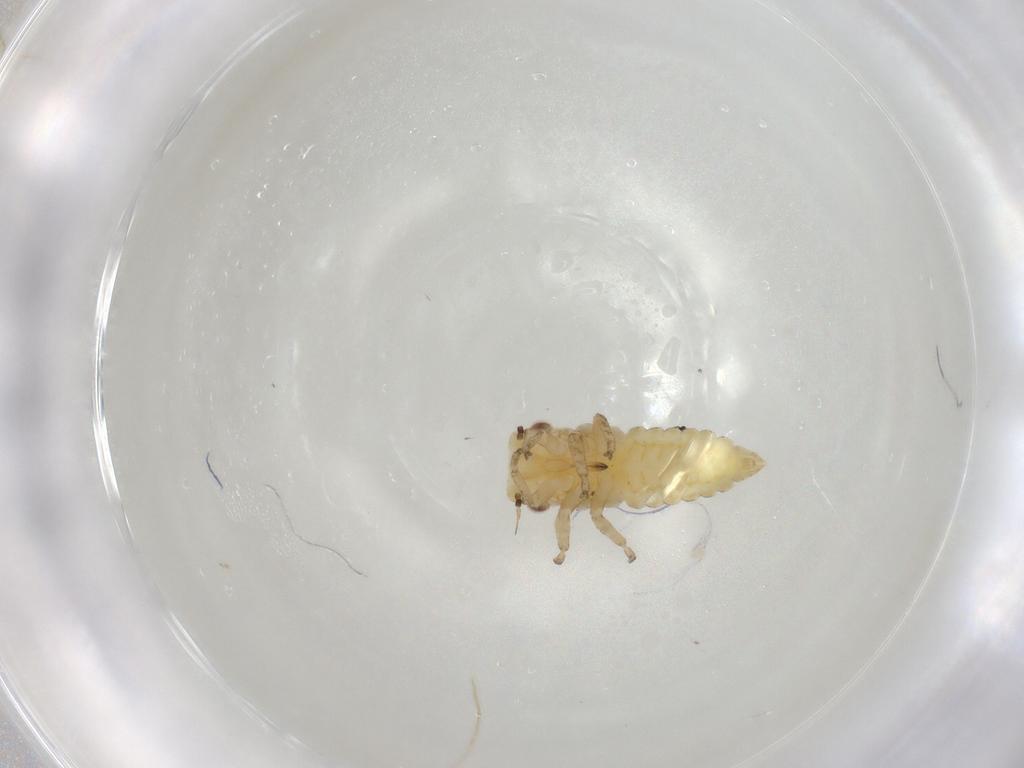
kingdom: Animalia
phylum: Arthropoda
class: Insecta
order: Hemiptera
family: Cicadellidae
